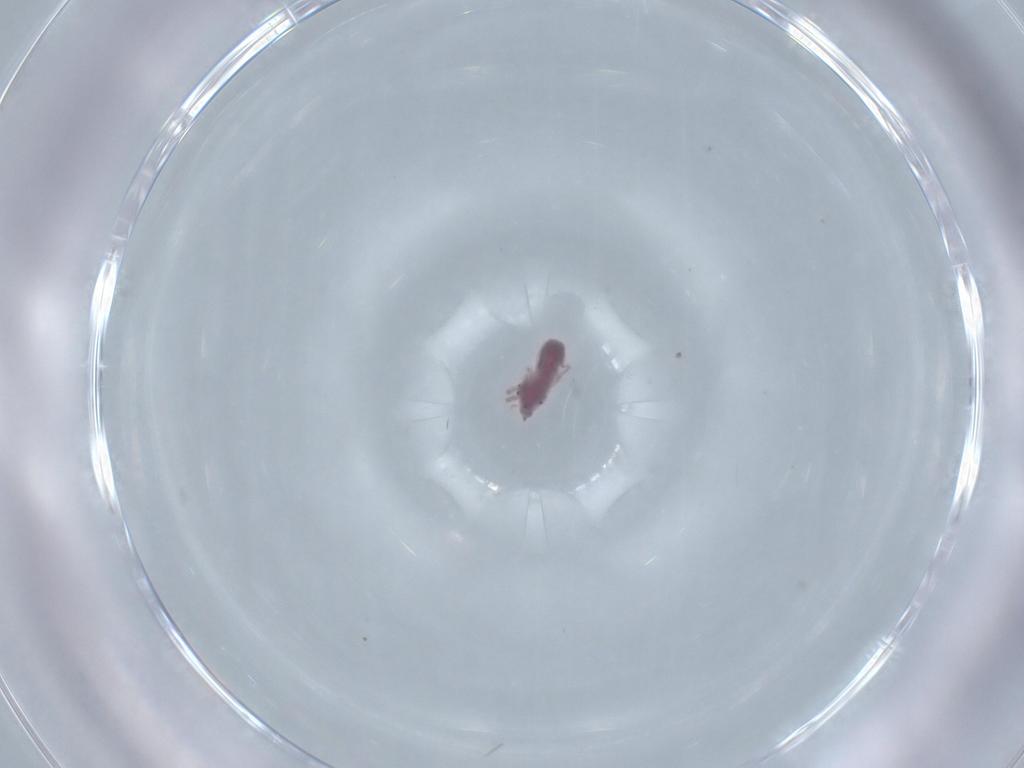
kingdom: Animalia
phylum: Arthropoda
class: Arachnida
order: Trombidiformes
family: Bdellidae
